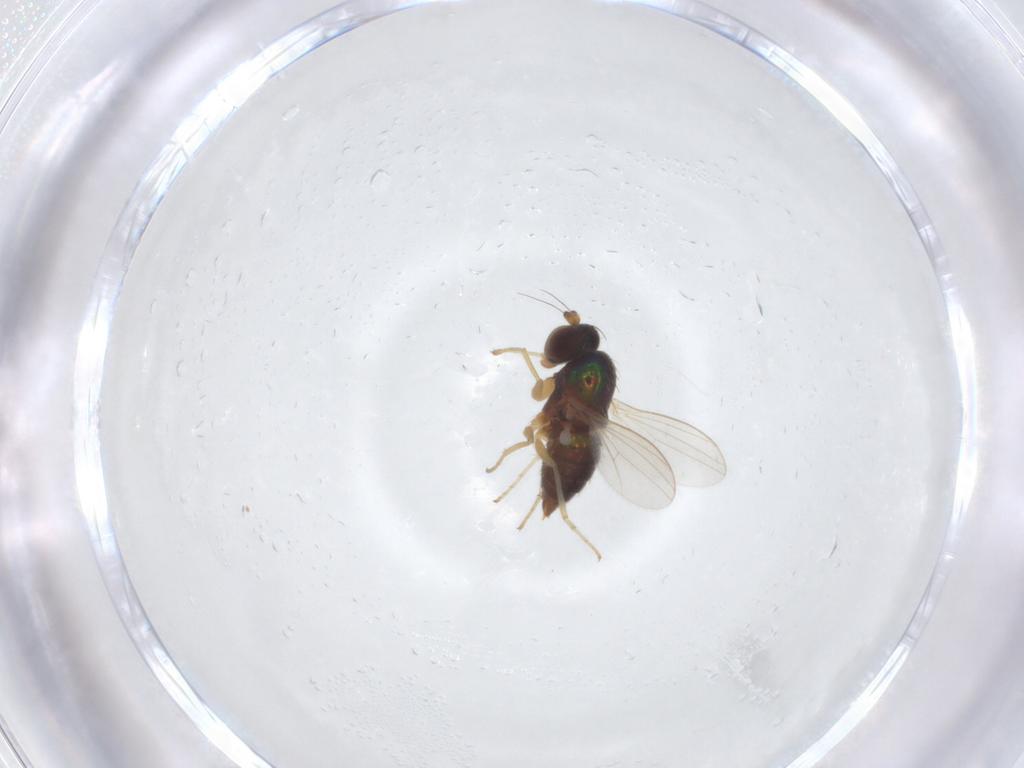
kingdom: Animalia
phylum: Arthropoda
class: Insecta
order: Diptera
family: Dolichopodidae
